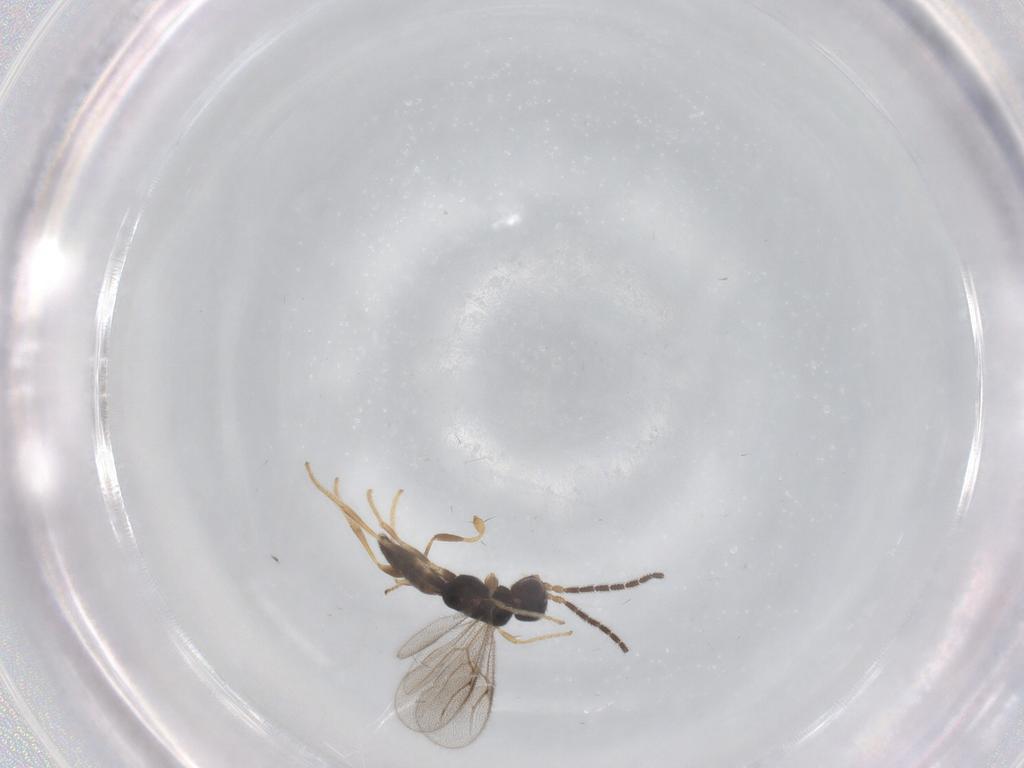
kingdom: Animalia
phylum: Arthropoda
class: Insecta
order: Hymenoptera
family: Dryinidae
